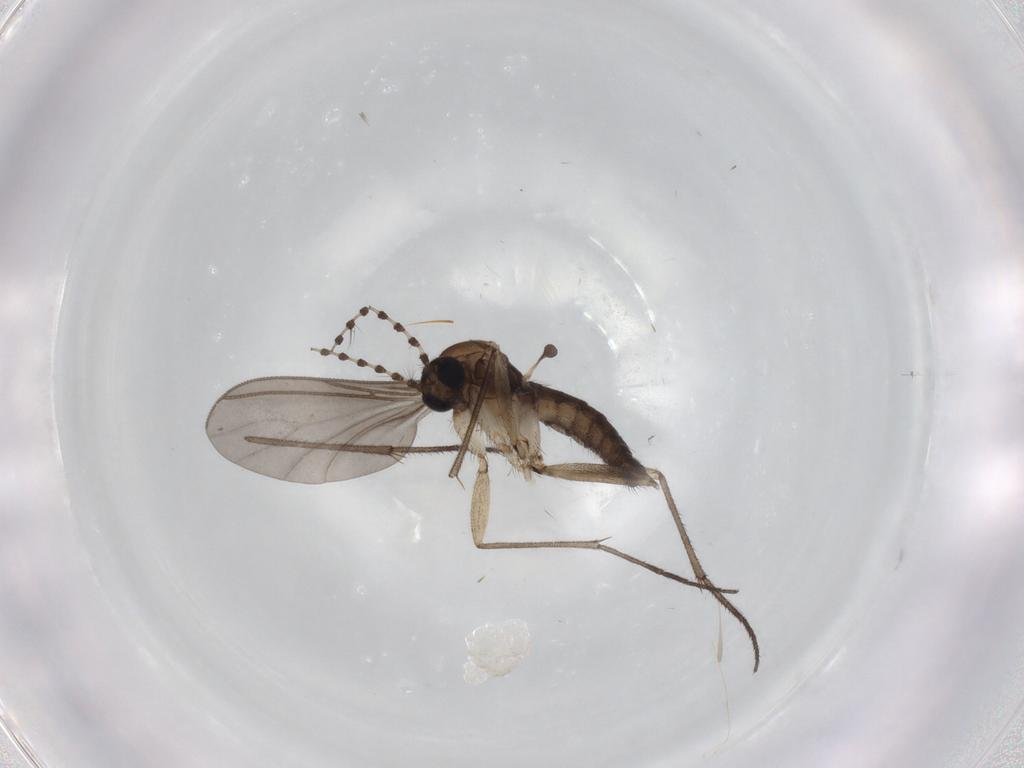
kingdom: Animalia
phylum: Arthropoda
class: Insecta
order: Diptera
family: Sciaridae
